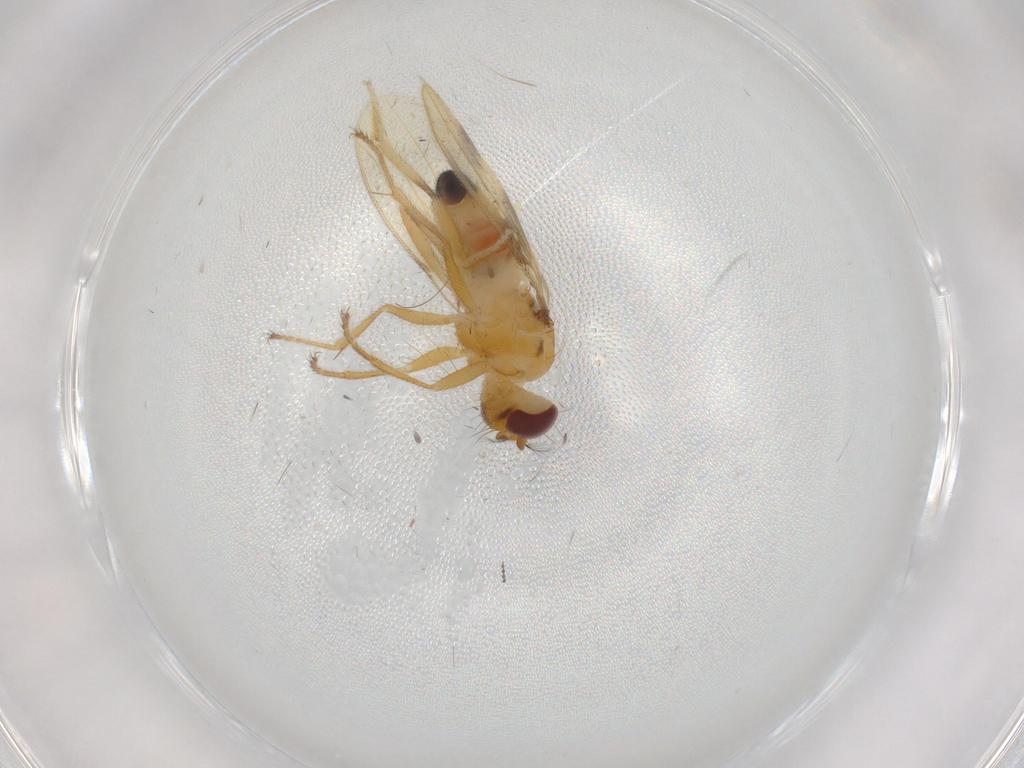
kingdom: Animalia
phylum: Arthropoda
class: Insecta
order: Diptera
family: Periscelididae
